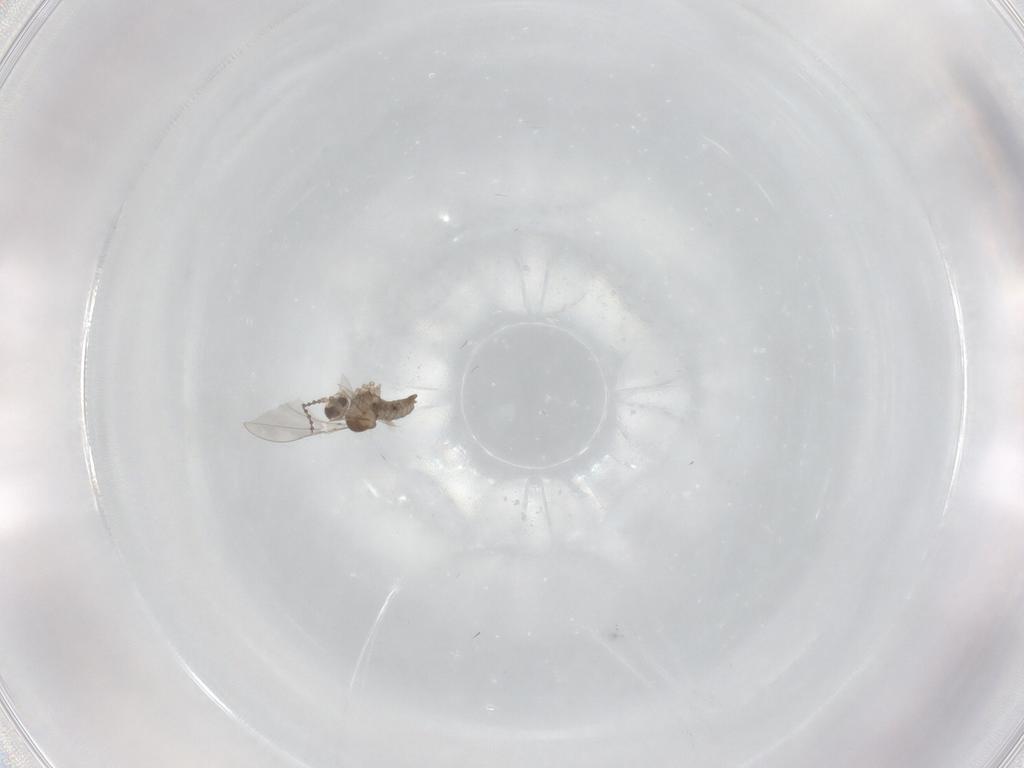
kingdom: Animalia
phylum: Arthropoda
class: Insecta
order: Diptera
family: Cecidomyiidae
